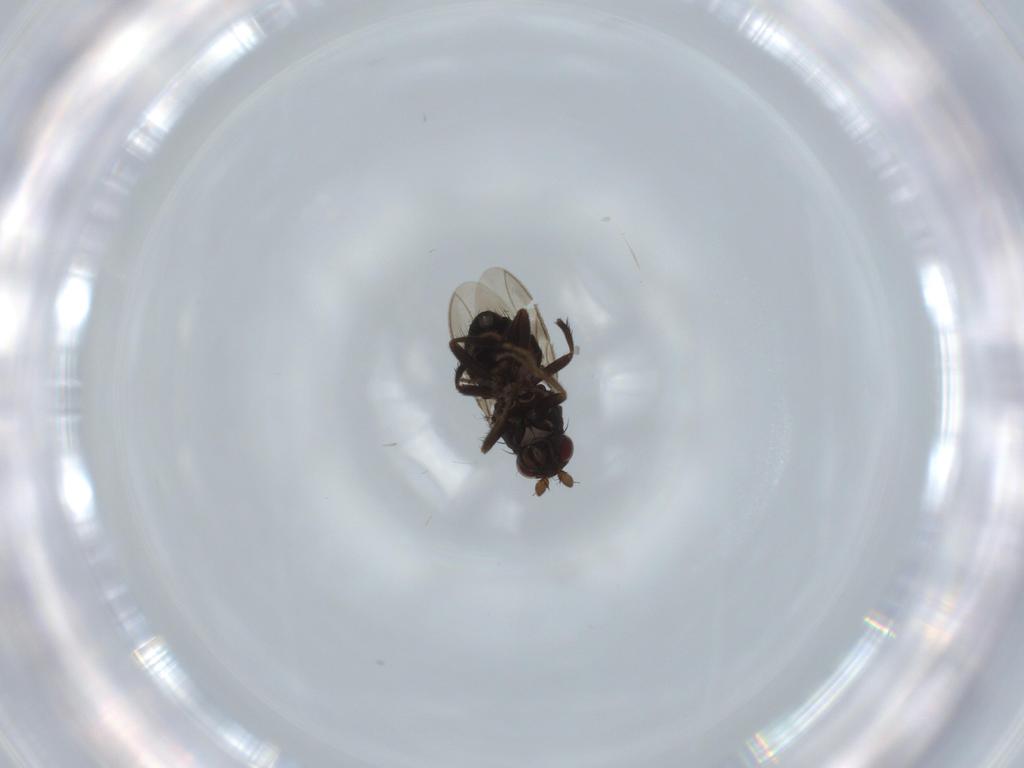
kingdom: Animalia
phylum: Arthropoda
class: Insecta
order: Diptera
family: Sphaeroceridae
